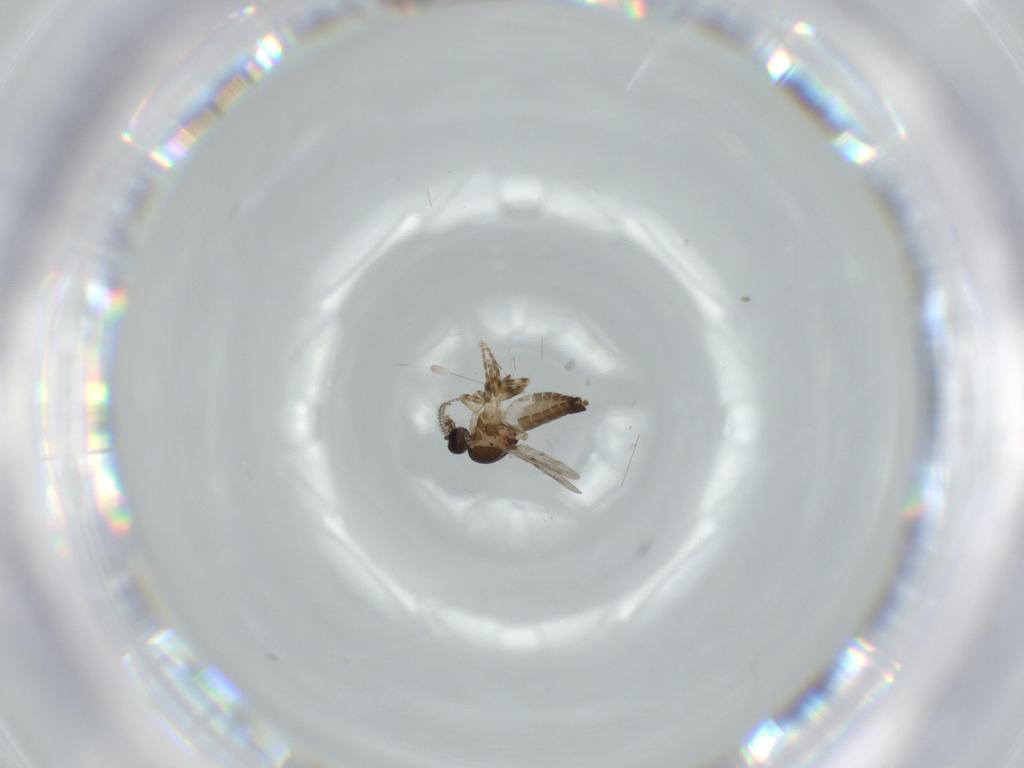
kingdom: Animalia
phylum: Arthropoda
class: Insecta
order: Diptera
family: Ceratopogonidae
